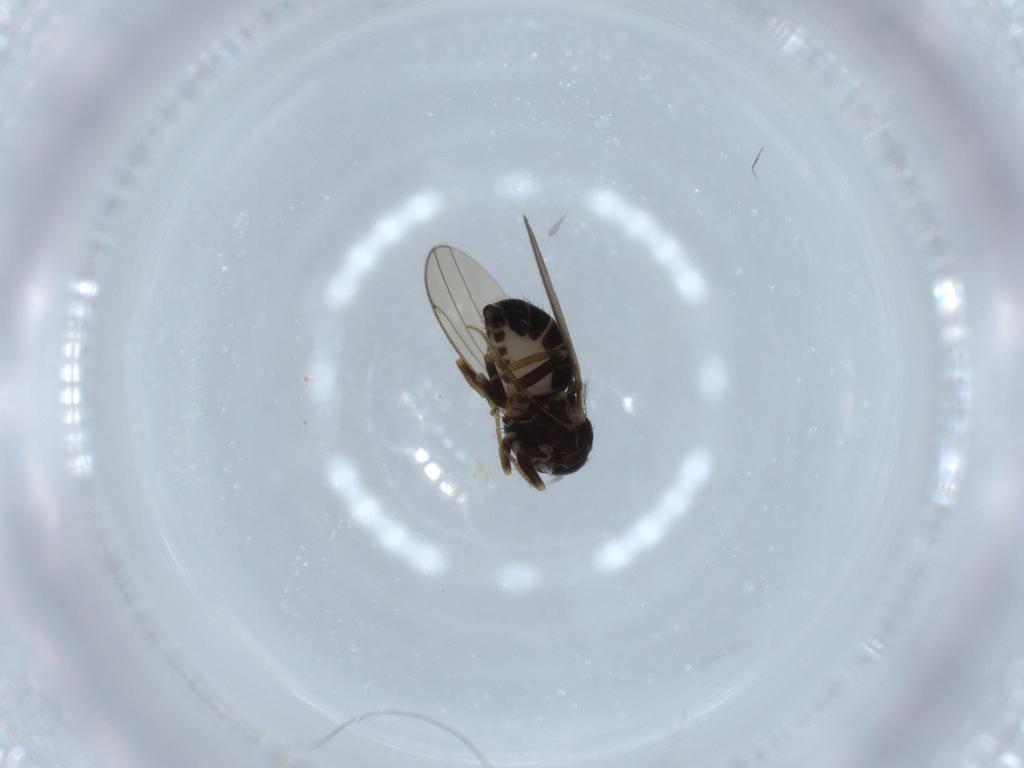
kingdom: Animalia
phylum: Arthropoda
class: Insecta
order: Diptera
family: Drosophilidae
